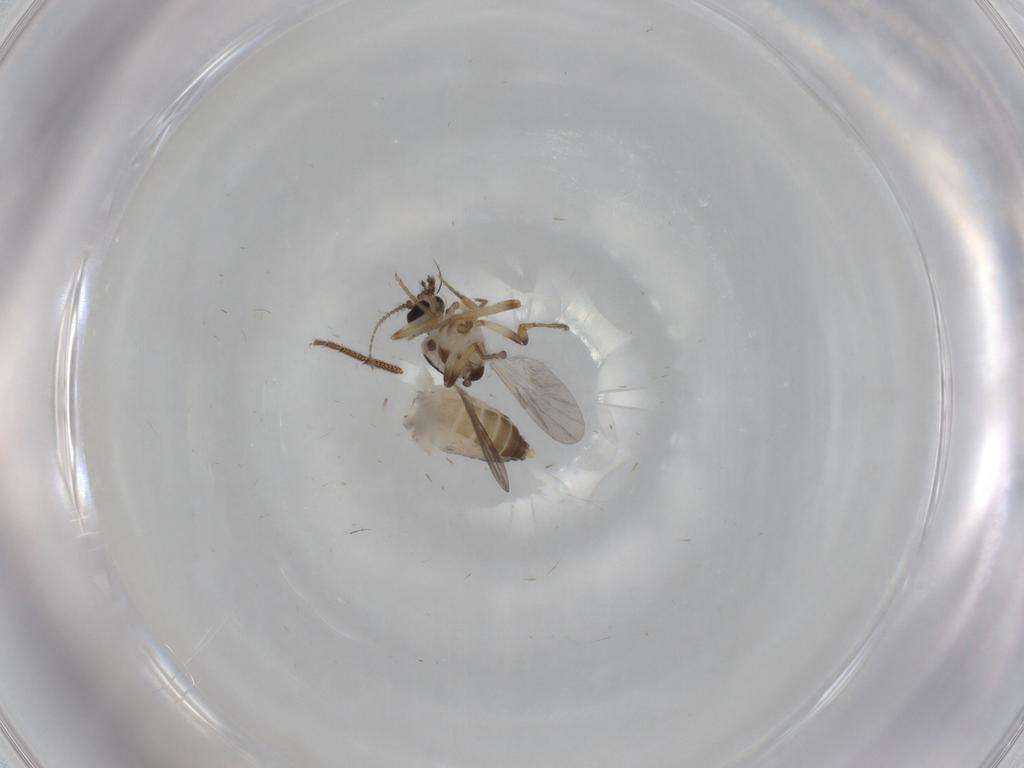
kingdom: Animalia
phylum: Arthropoda
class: Insecta
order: Diptera
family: Ceratopogonidae
